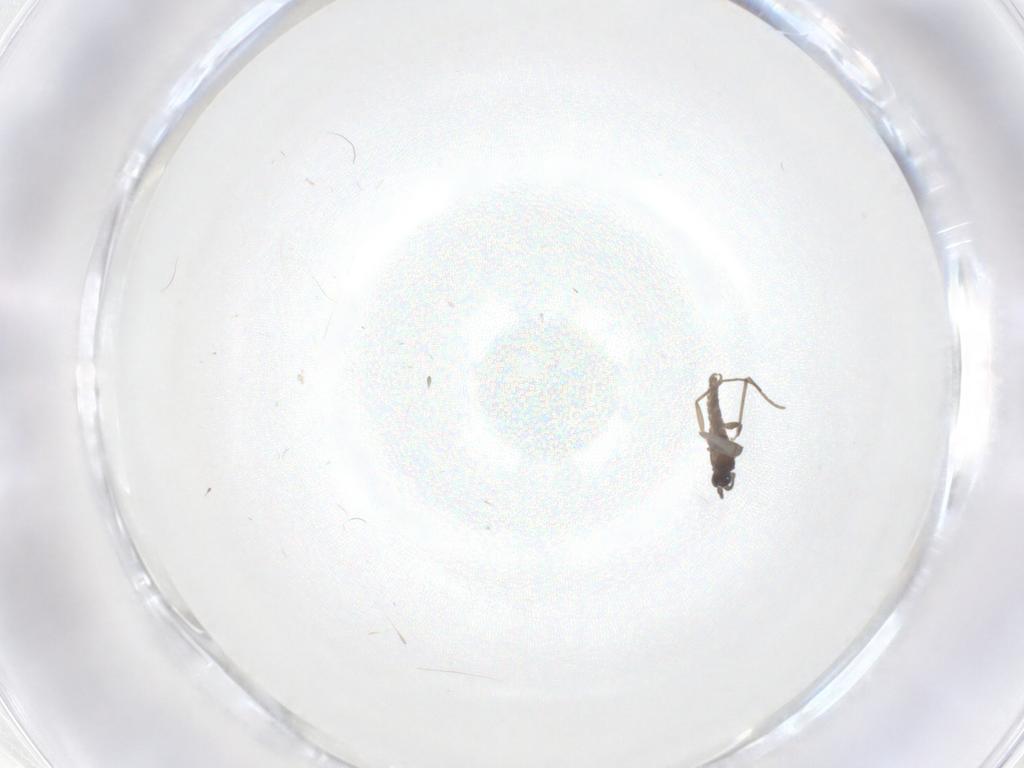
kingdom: Animalia
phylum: Arthropoda
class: Insecta
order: Diptera
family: Sciaridae
